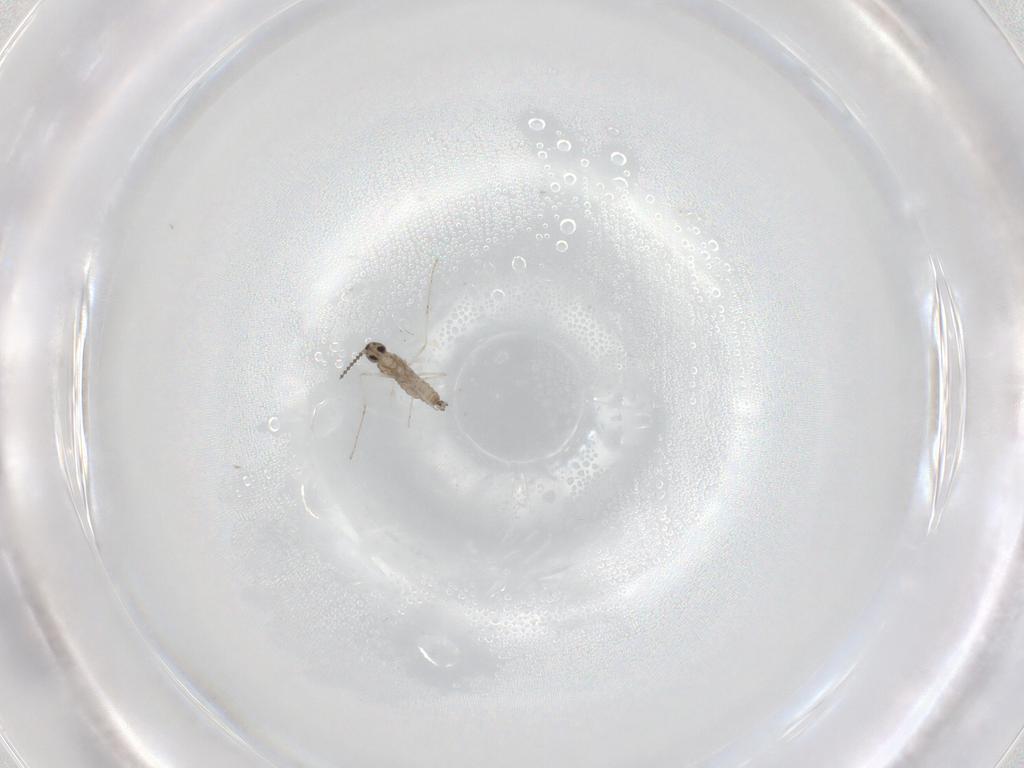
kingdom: Animalia
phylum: Arthropoda
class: Insecta
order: Diptera
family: Cecidomyiidae
